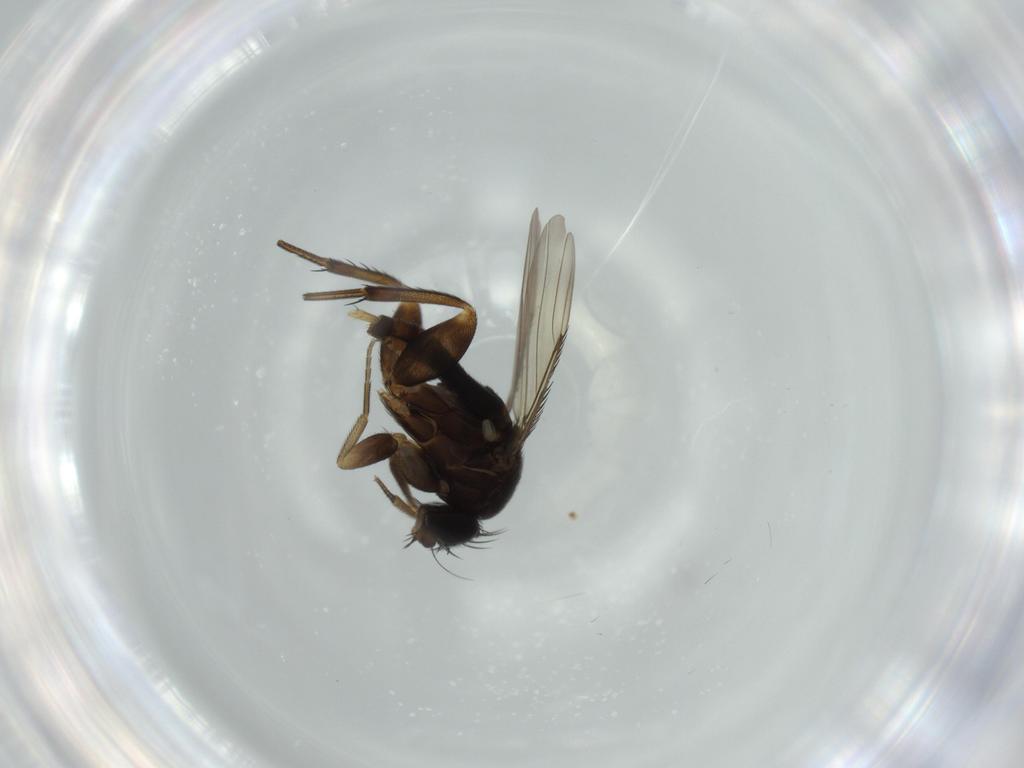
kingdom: Animalia
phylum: Arthropoda
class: Insecta
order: Diptera
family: Phoridae
